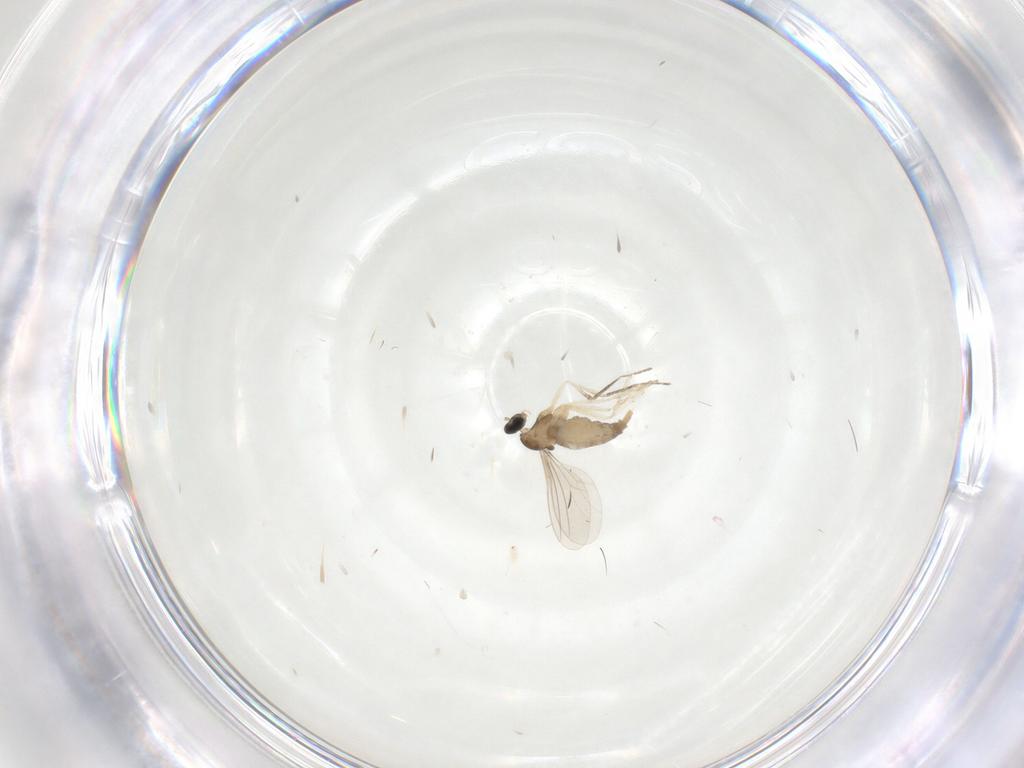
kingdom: Animalia
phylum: Arthropoda
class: Insecta
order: Diptera
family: Cecidomyiidae
